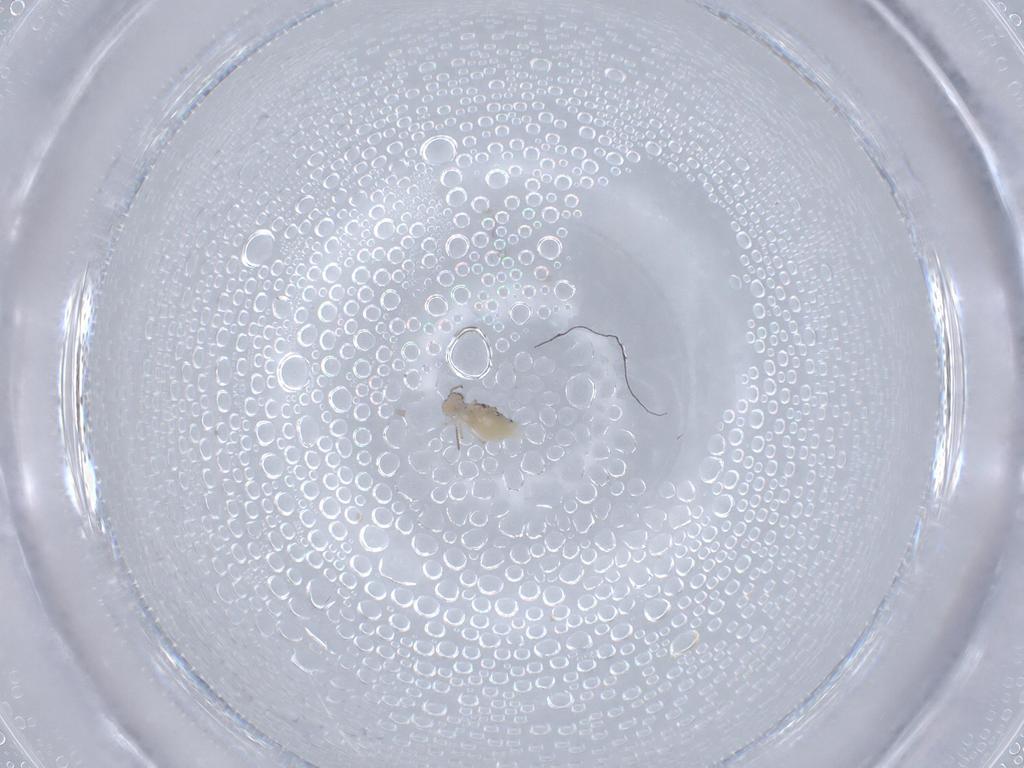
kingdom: Animalia
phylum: Arthropoda
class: Collembola
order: Symphypleona
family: Bourletiellidae
